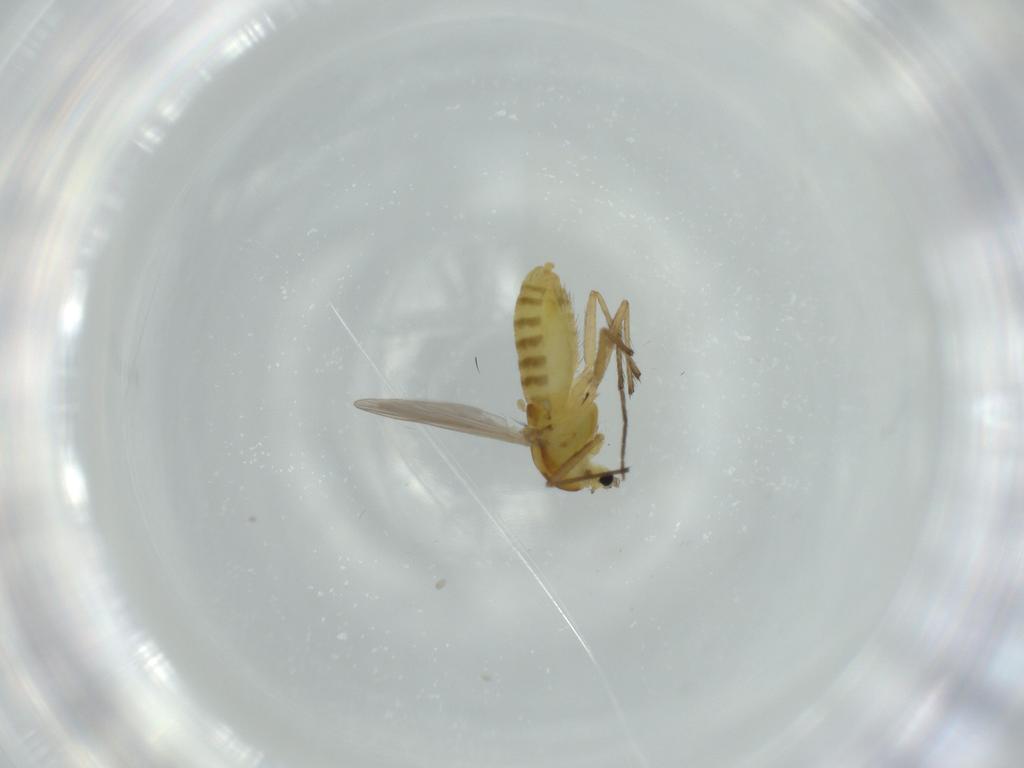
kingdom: Animalia
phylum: Arthropoda
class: Insecta
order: Diptera
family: Chironomidae
